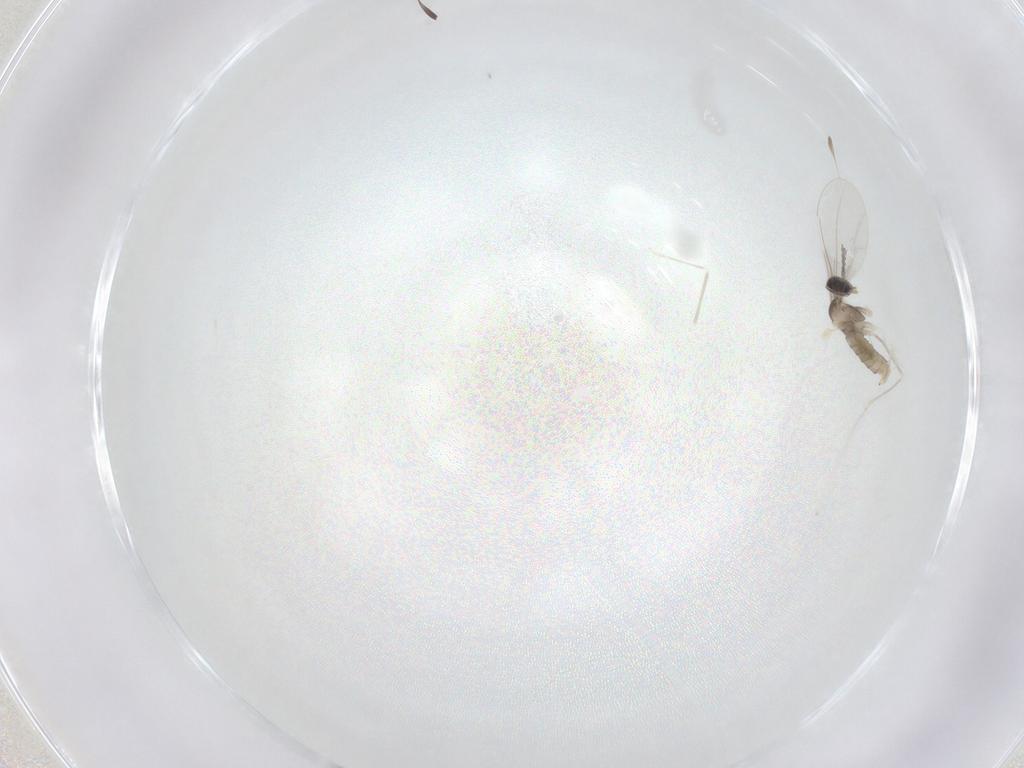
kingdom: Animalia
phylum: Arthropoda
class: Insecta
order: Diptera
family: Cecidomyiidae
